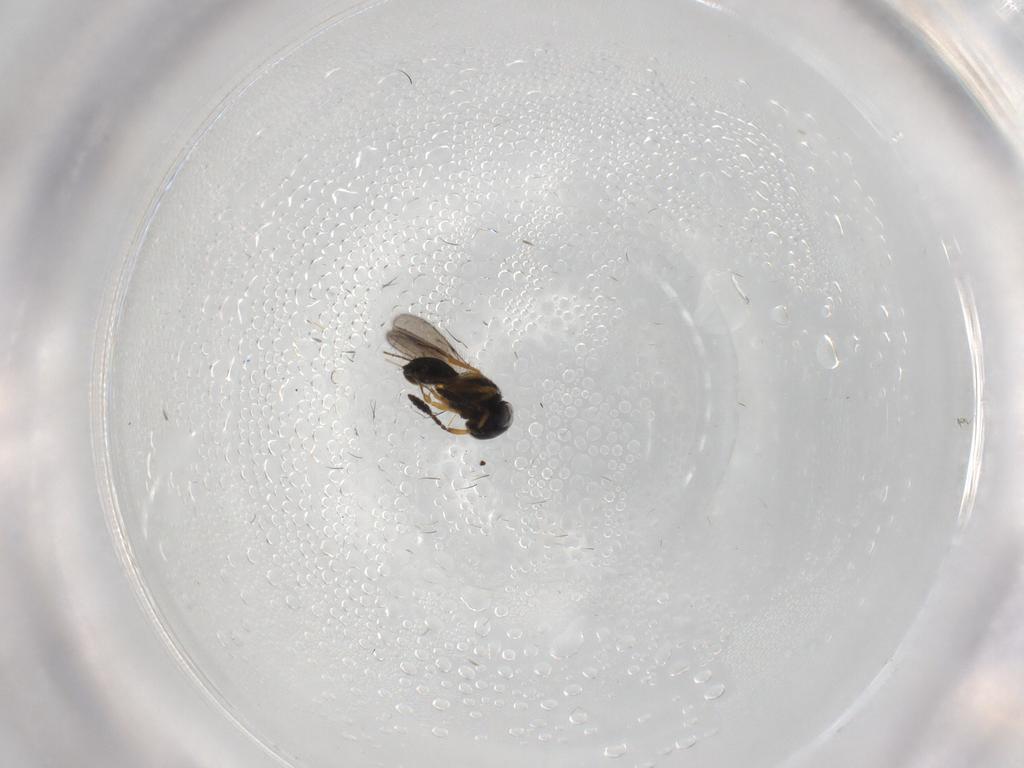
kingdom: Animalia
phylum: Arthropoda
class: Insecta
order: Hymenoptera
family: Scelionidae
